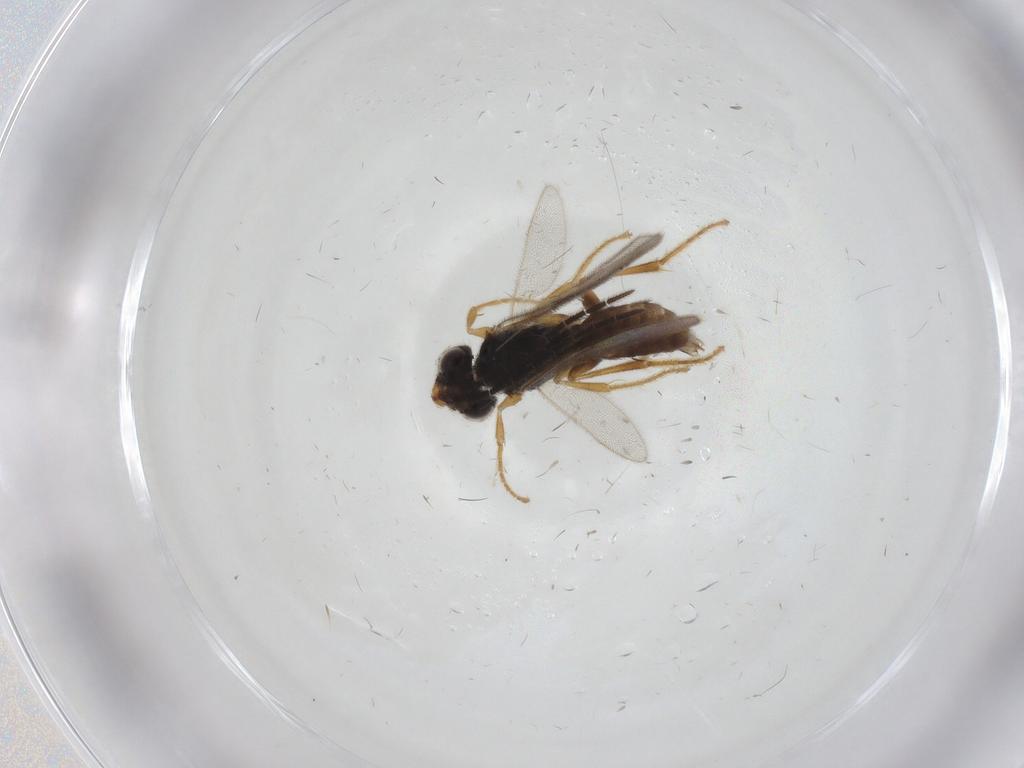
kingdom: Animalia
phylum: Arthropoda
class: Insecta
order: Hymenoptera
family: Dryinidae
